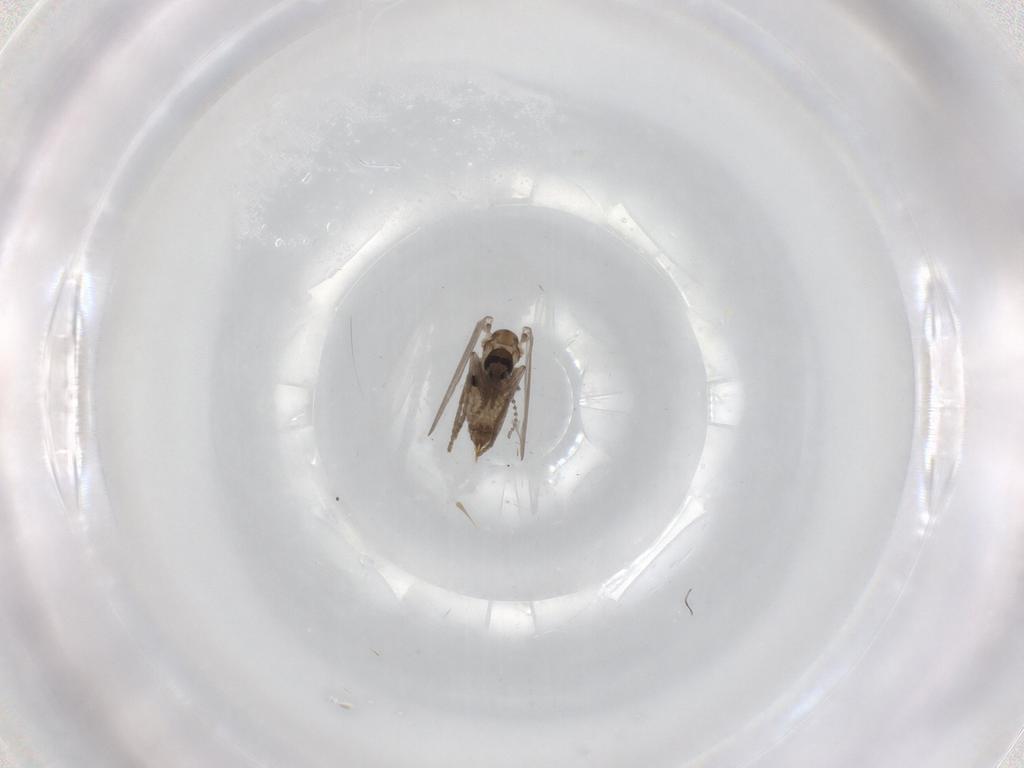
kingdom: Animalia
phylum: Arthropoda
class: Insecta
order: Diptera
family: Psychodidae
